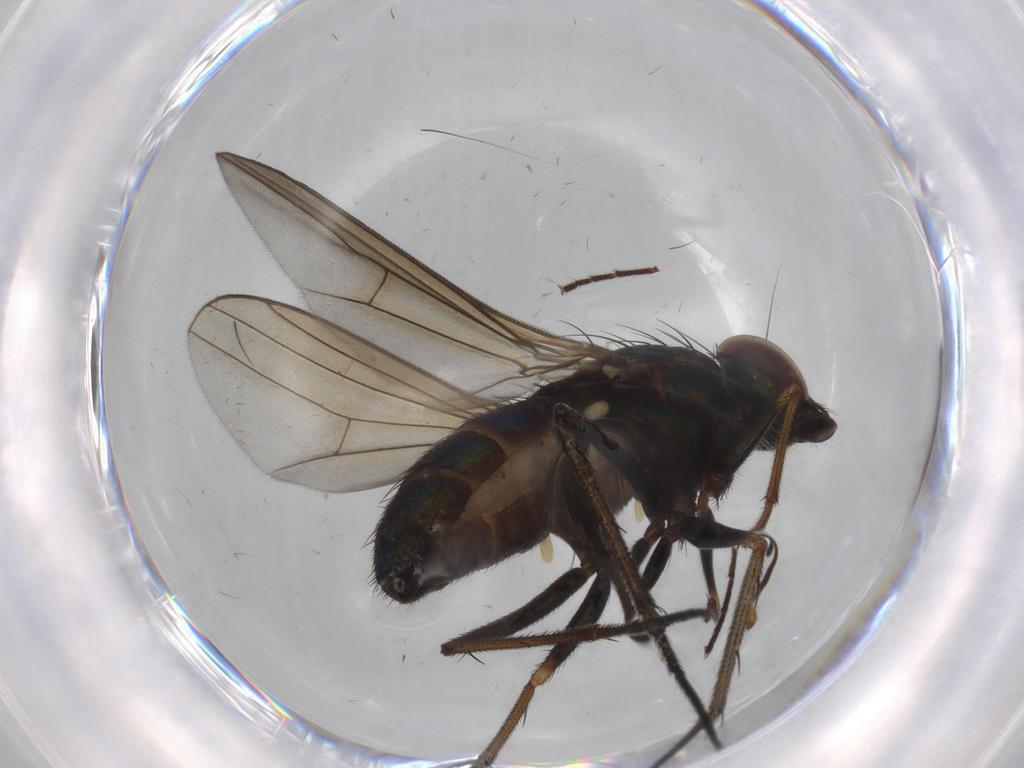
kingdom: Animalia
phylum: Arthropoda
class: Insecta
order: Diptera
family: Dolichopodidae
